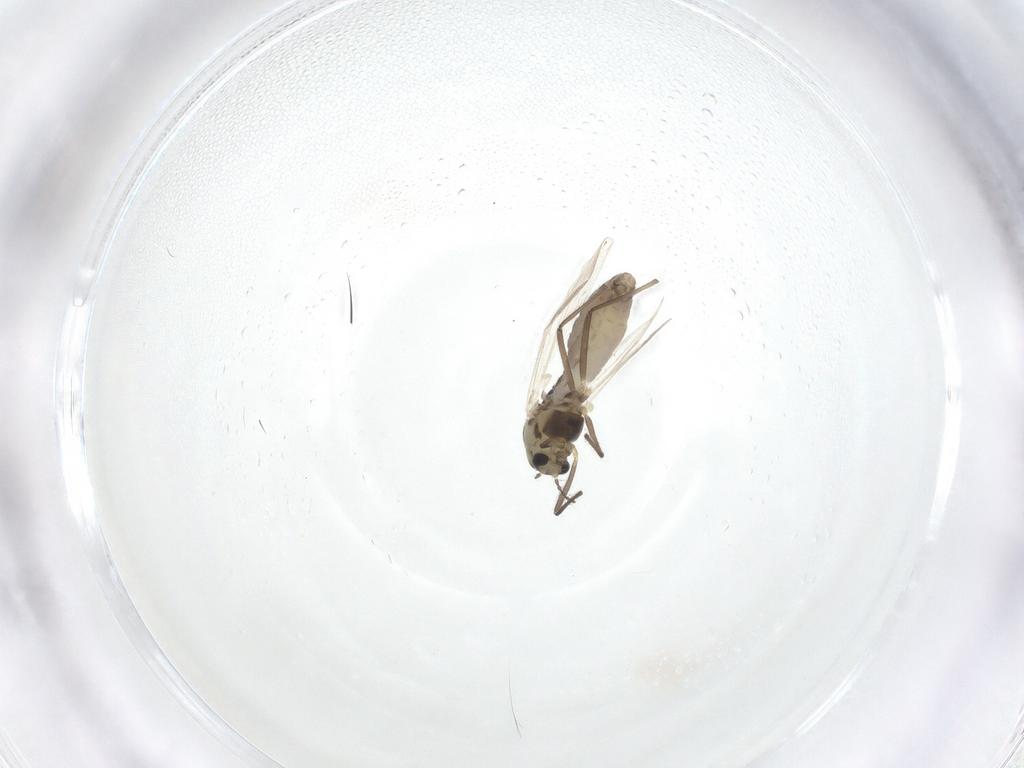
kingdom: Animalia
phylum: Arthropoda
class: Insecta
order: Diptera
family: Chironomidae
